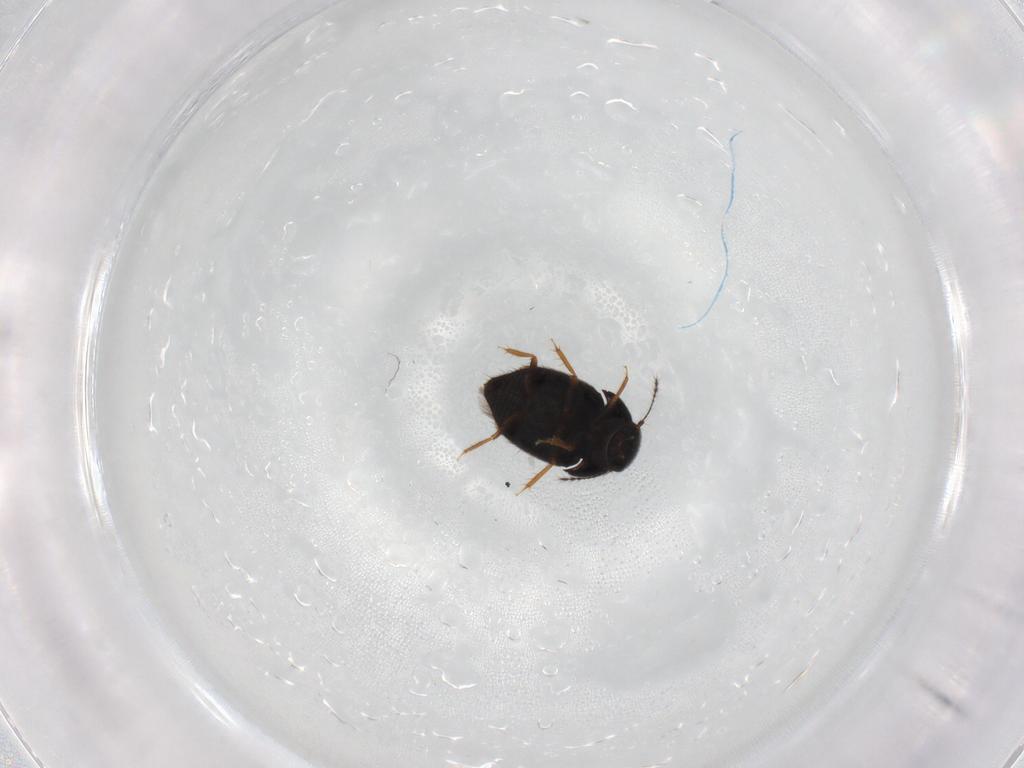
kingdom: Animalia
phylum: Arthropoda
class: Insecta
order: Coleoptera
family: Ptiliidae
